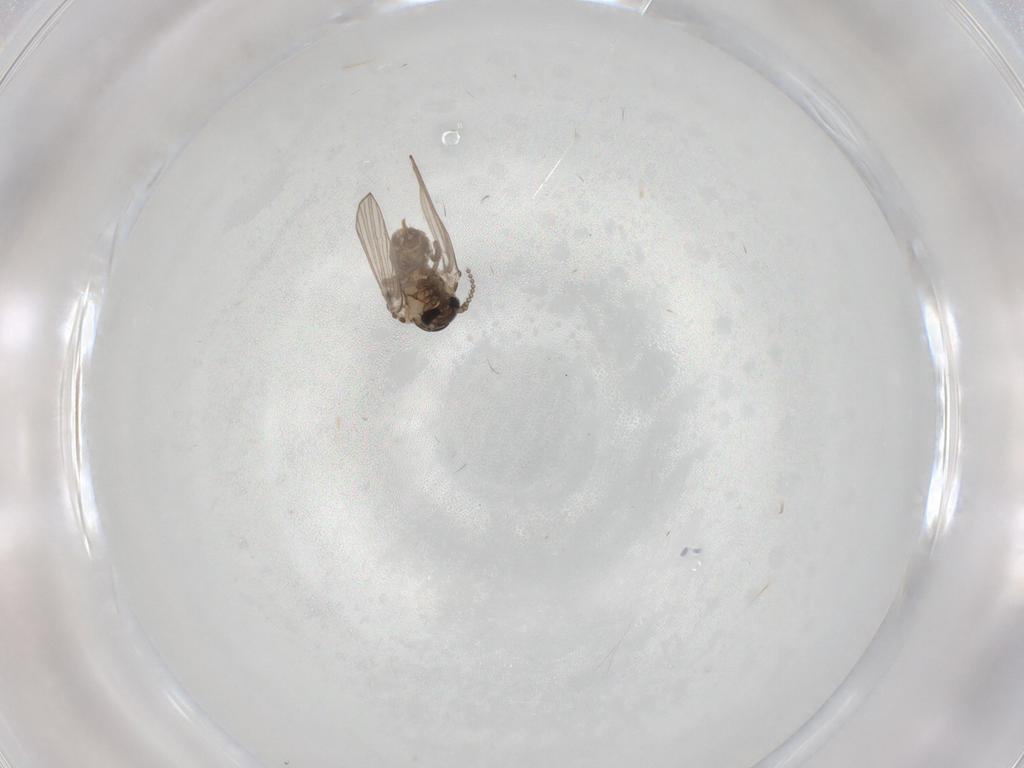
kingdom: Animalia
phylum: Arthropoda
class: Insecta
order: Diptera
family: Psychodidae
